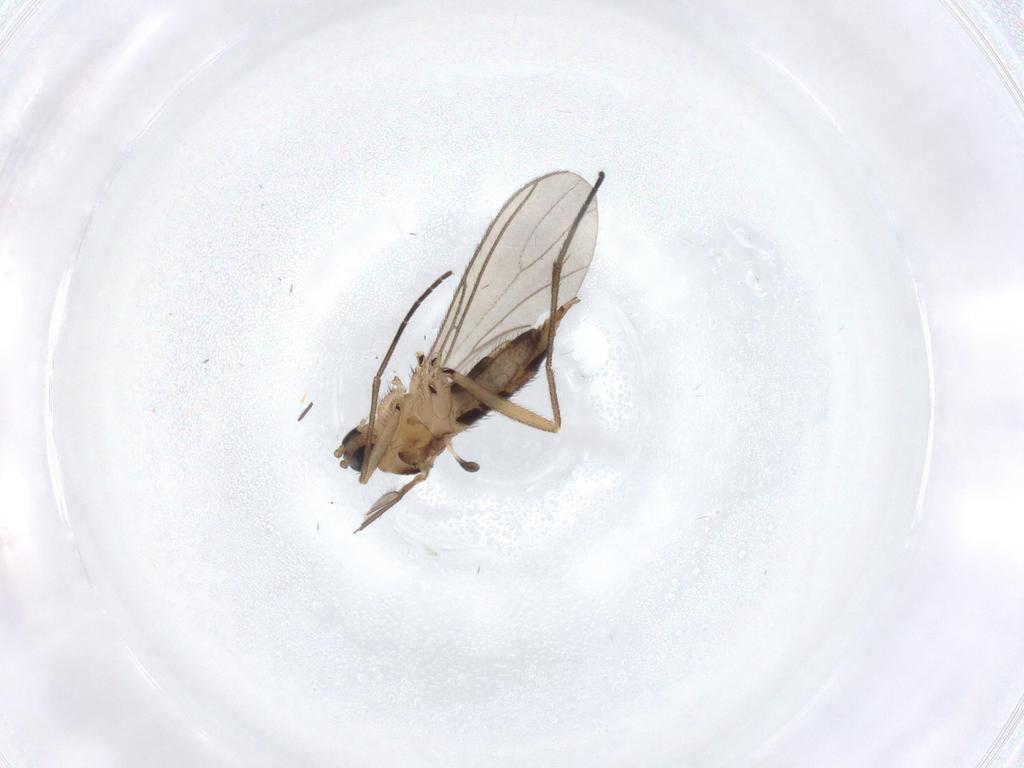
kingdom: Animalia
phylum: Arthropoda
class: Insecta
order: Diptera
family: Sciaridae
